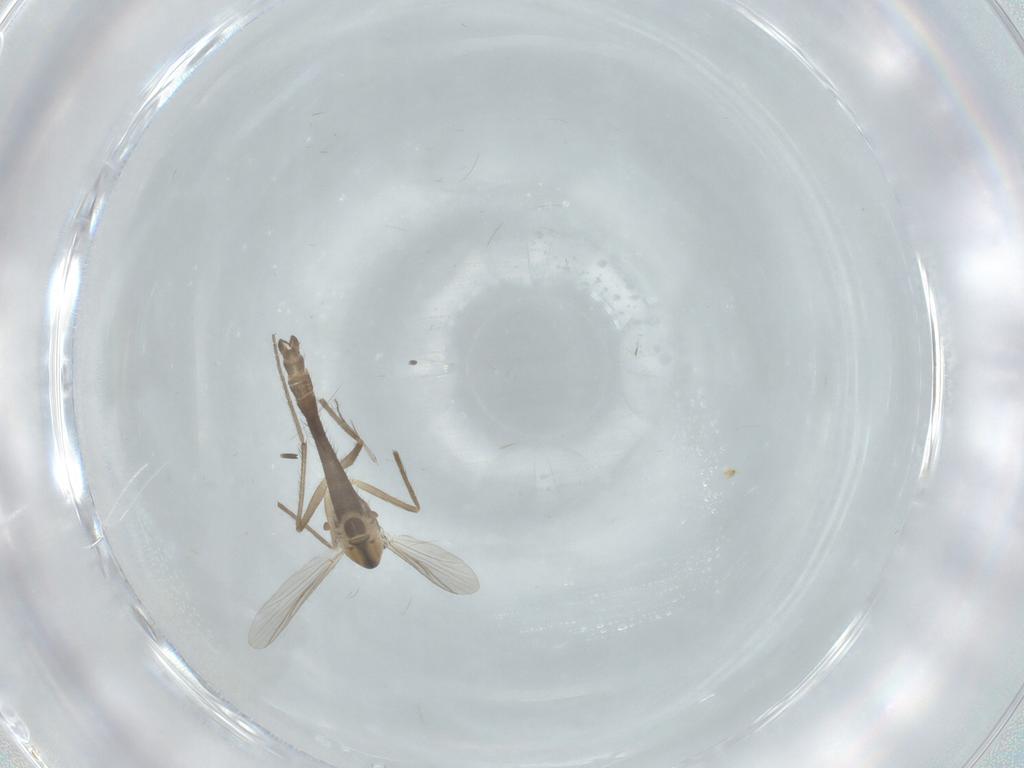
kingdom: Animalia
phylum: Arthropoda
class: Insecta
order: Diptera
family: Chironomidae
